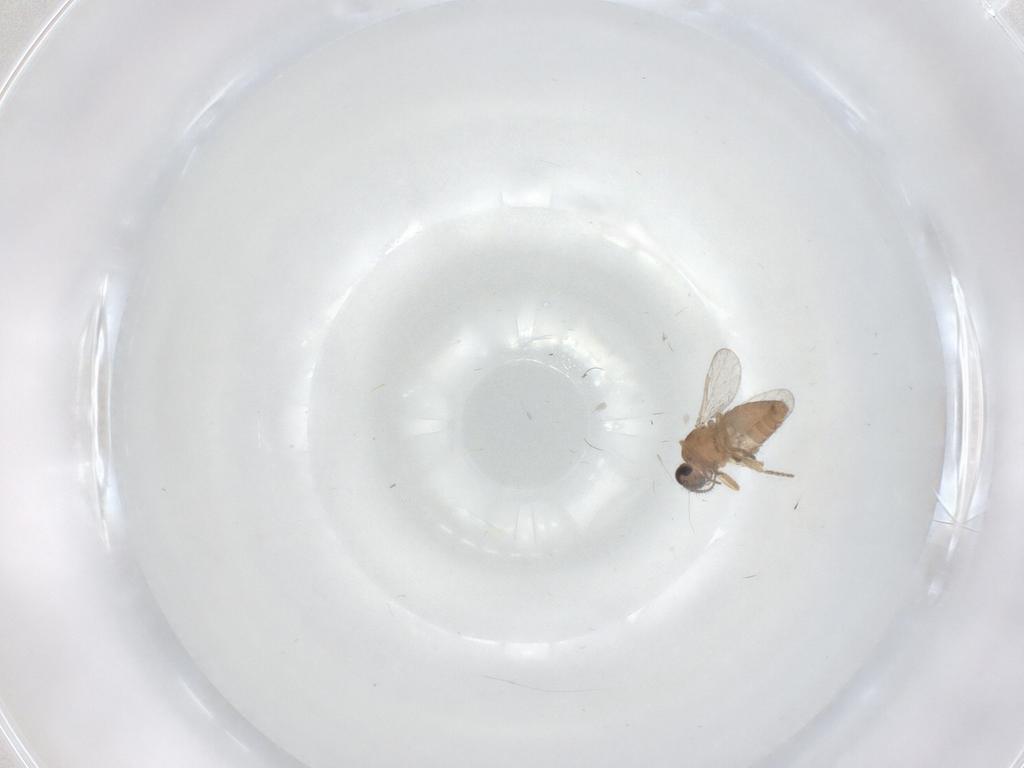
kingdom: Animalia
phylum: Arthropoda
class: Insecta
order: Diptera
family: Chironomidae
